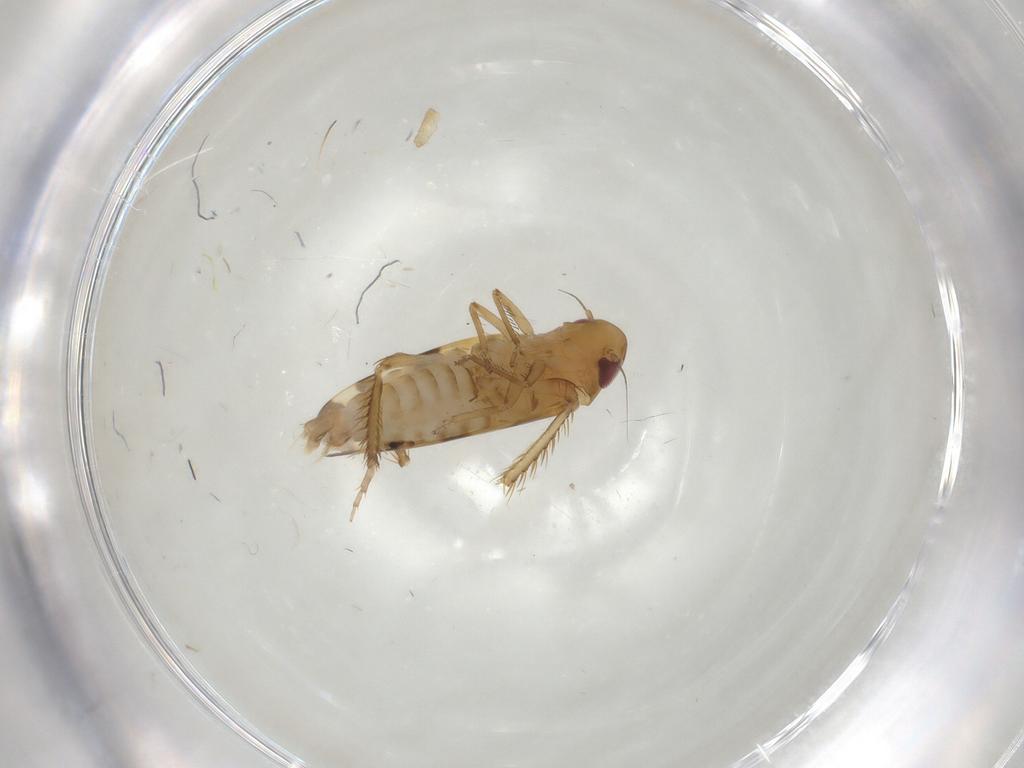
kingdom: Animalia
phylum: Arthropoda
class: Insecta
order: Hemiptera
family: Cicadellidae
